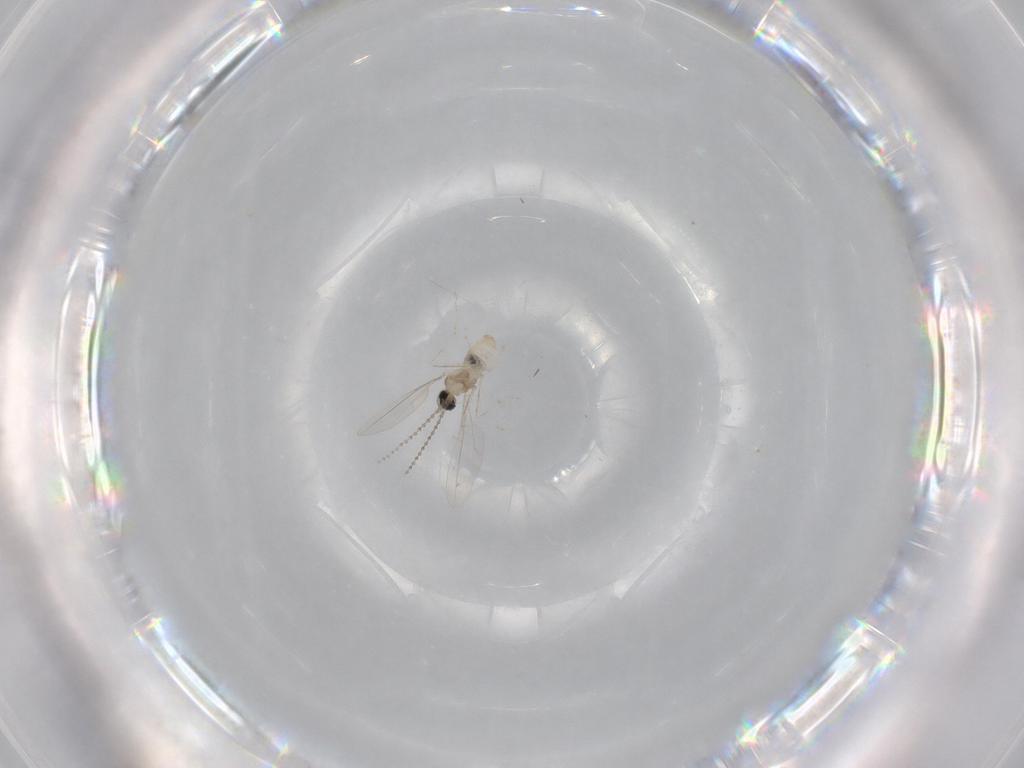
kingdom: Animalia
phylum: Arthropoda
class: Insecta
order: Diptera
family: Cecidomyiidae
